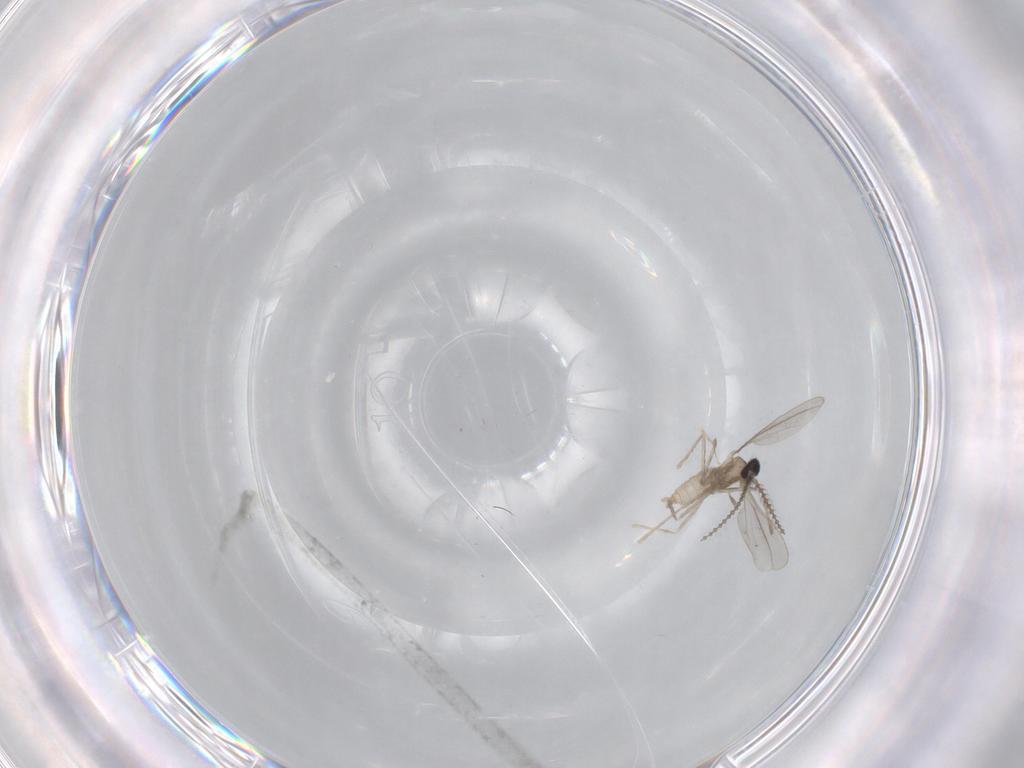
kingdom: Animalia
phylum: Arthropoda
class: Insecta
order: Diptera
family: Cecidomyiidae
